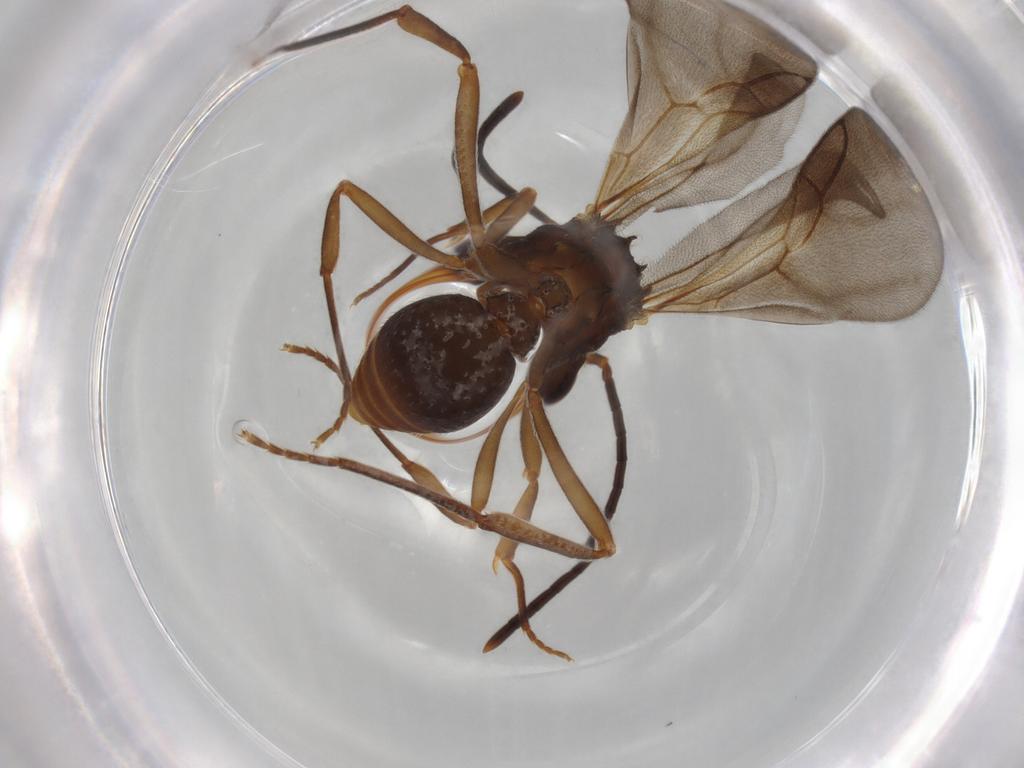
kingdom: Animalia
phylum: Arthropoda
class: Insecta
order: Hymenoptera
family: Formicidae
